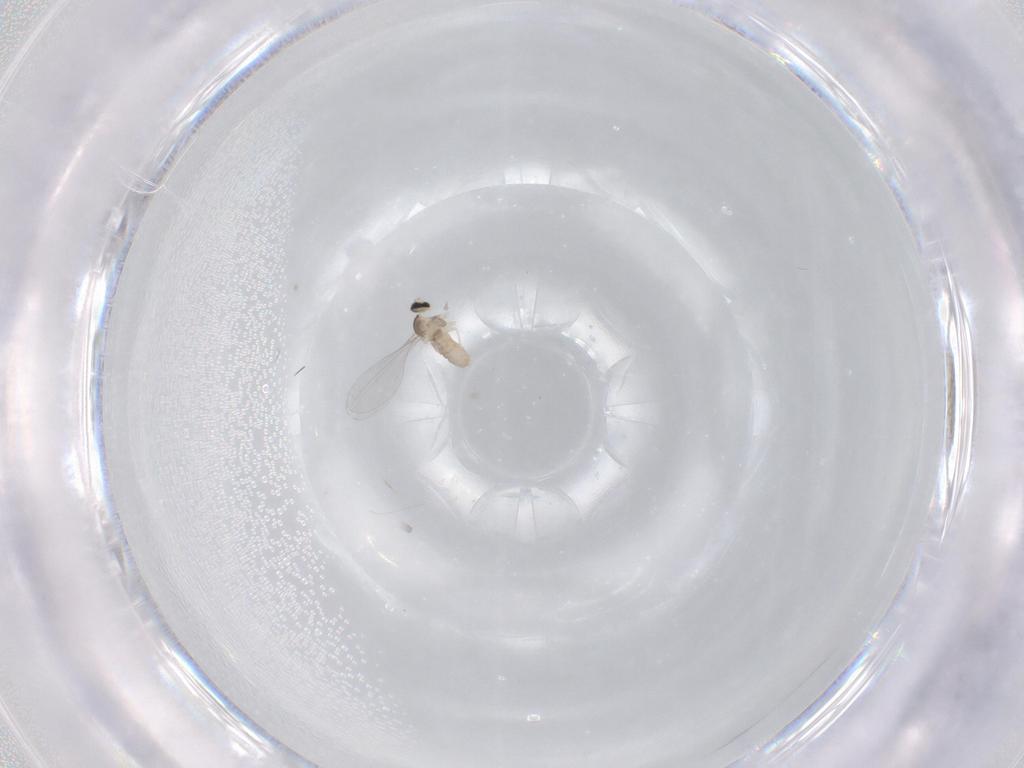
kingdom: Animalia
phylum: Arthropoda
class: Insecta
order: Diptera
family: Cecidomyiidae
